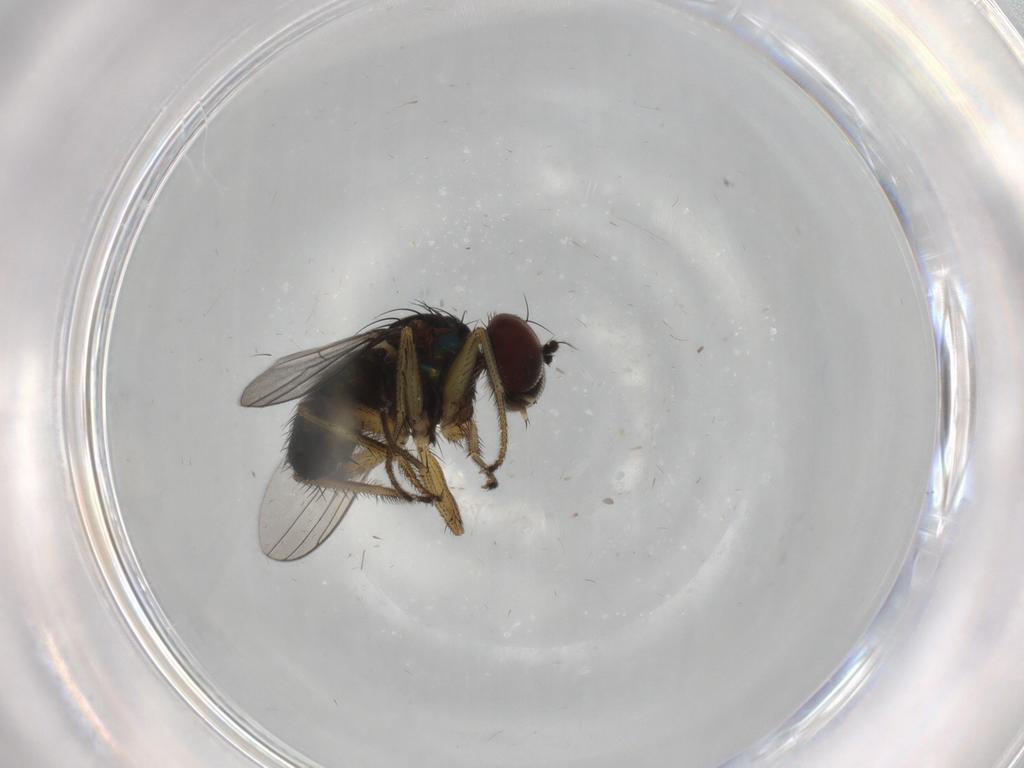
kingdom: Animalia
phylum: Arthropoda
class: Insecta
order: Diptera
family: Dolichopodidae
